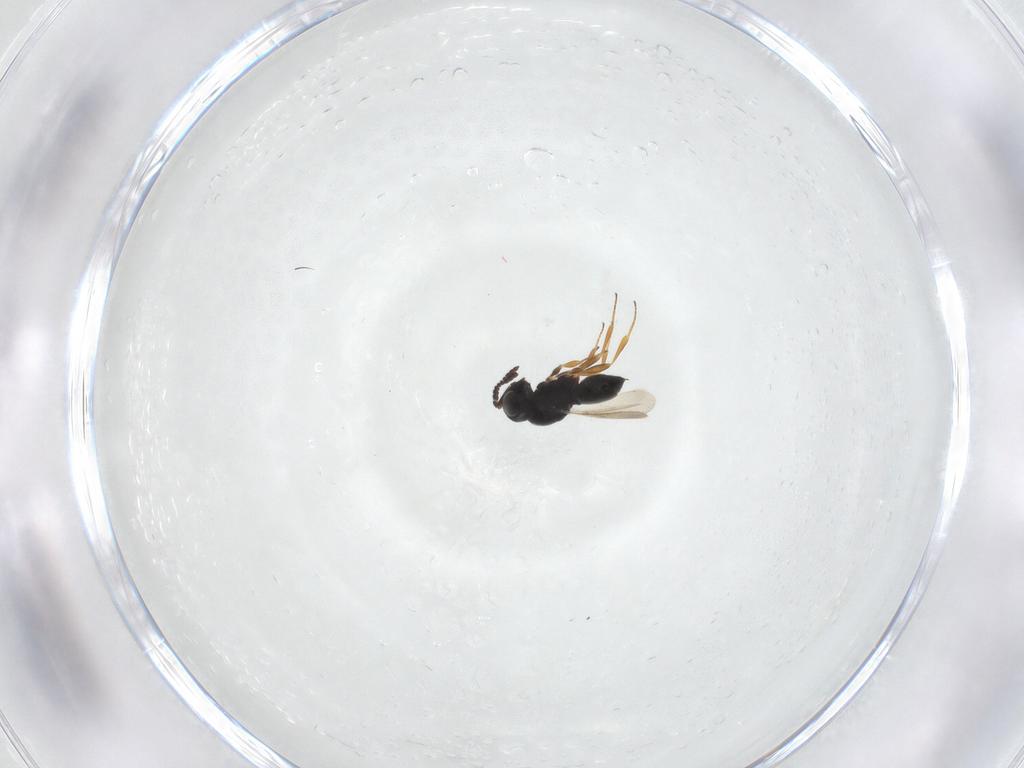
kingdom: Animalia
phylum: Arthropoda
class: Insecta
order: Hymenoptera
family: Scelionidae
